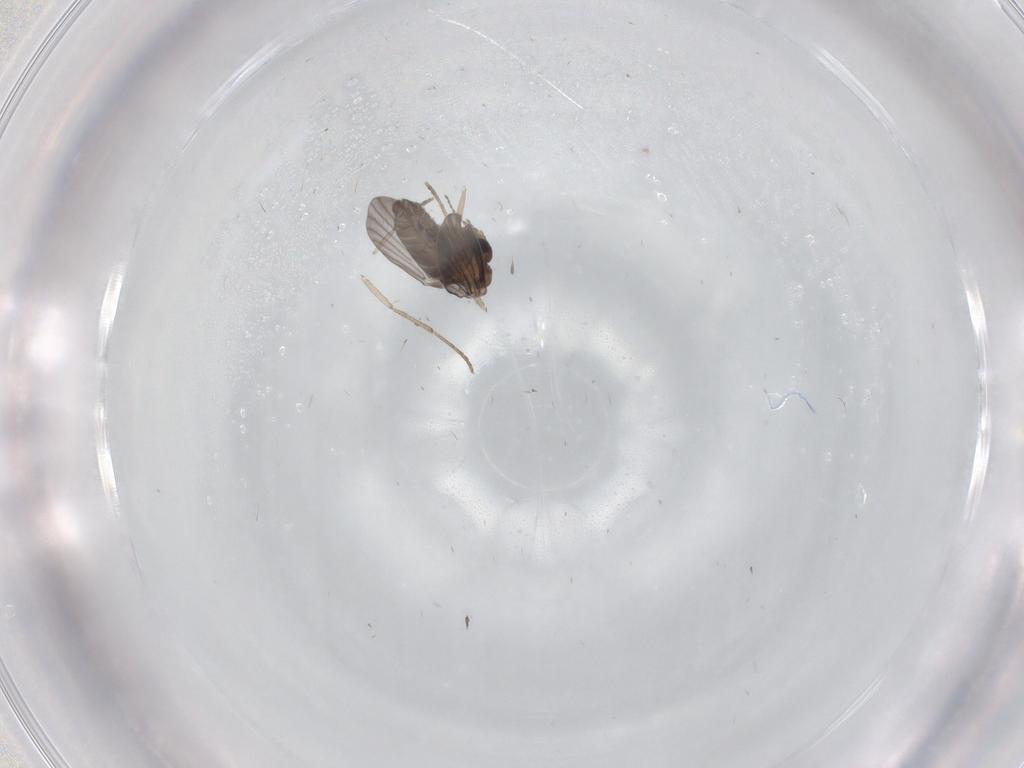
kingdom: Animalia
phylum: Arthropoda
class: Insecta
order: Diptera
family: Phoridae
